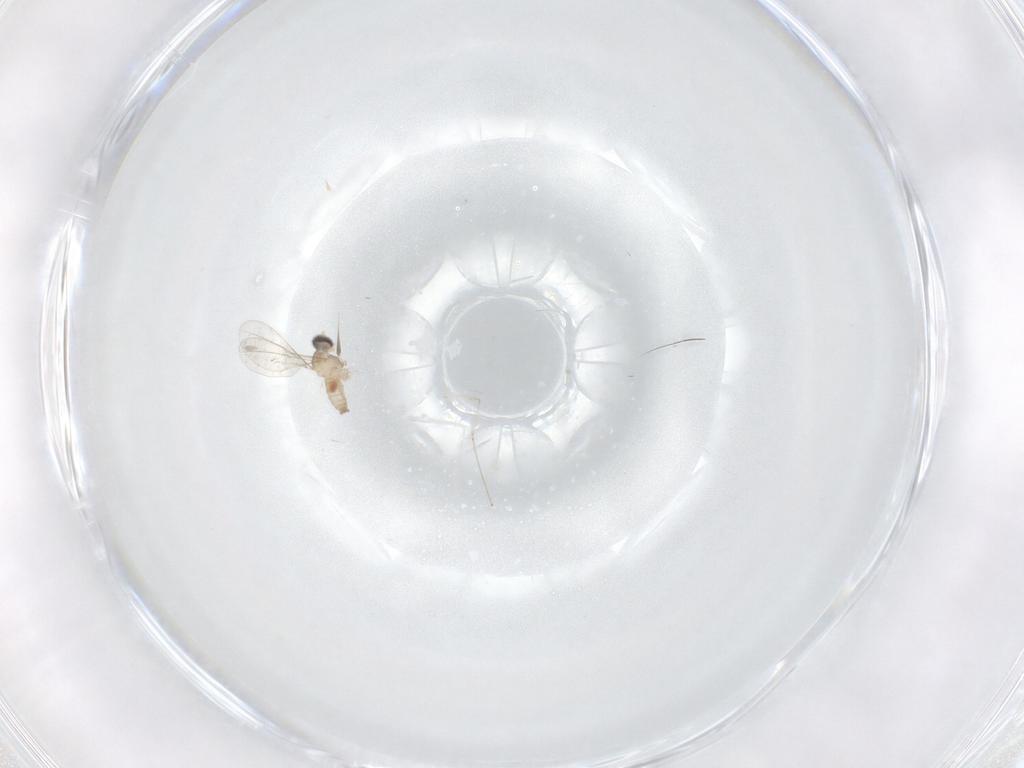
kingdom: Animalia
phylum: Arthropoda
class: Insecta
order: Diptera
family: Cecidomyiidae
